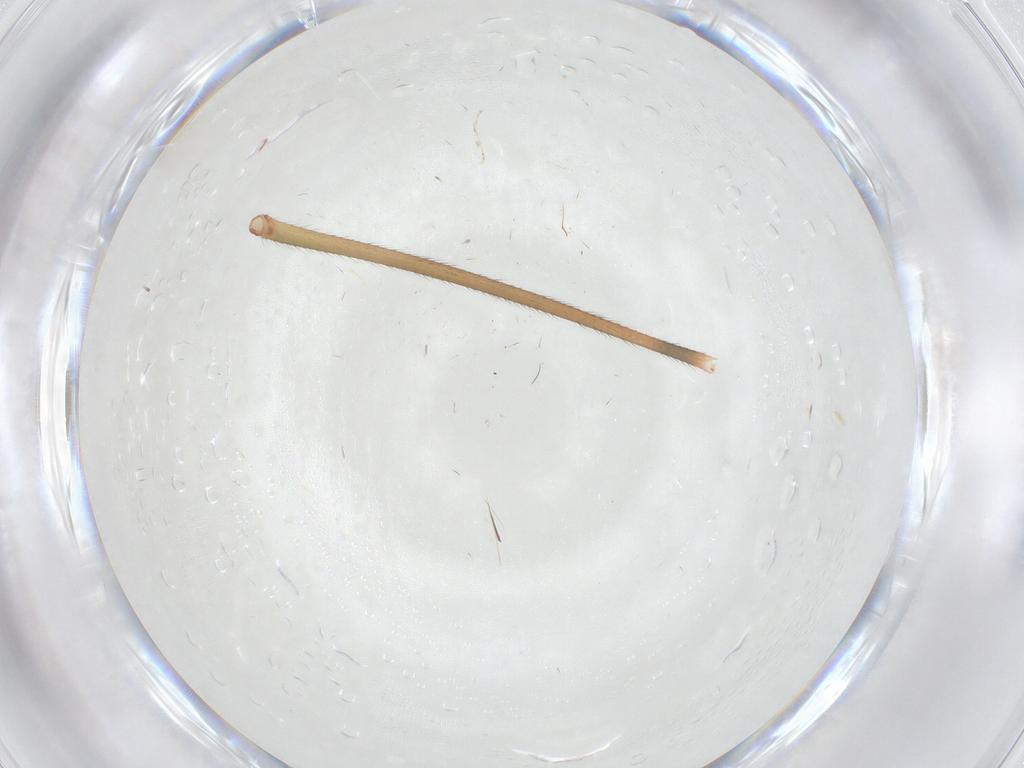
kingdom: Animalia
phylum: Arthropoda
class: Arachnida
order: Araneae
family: Pholcidae
